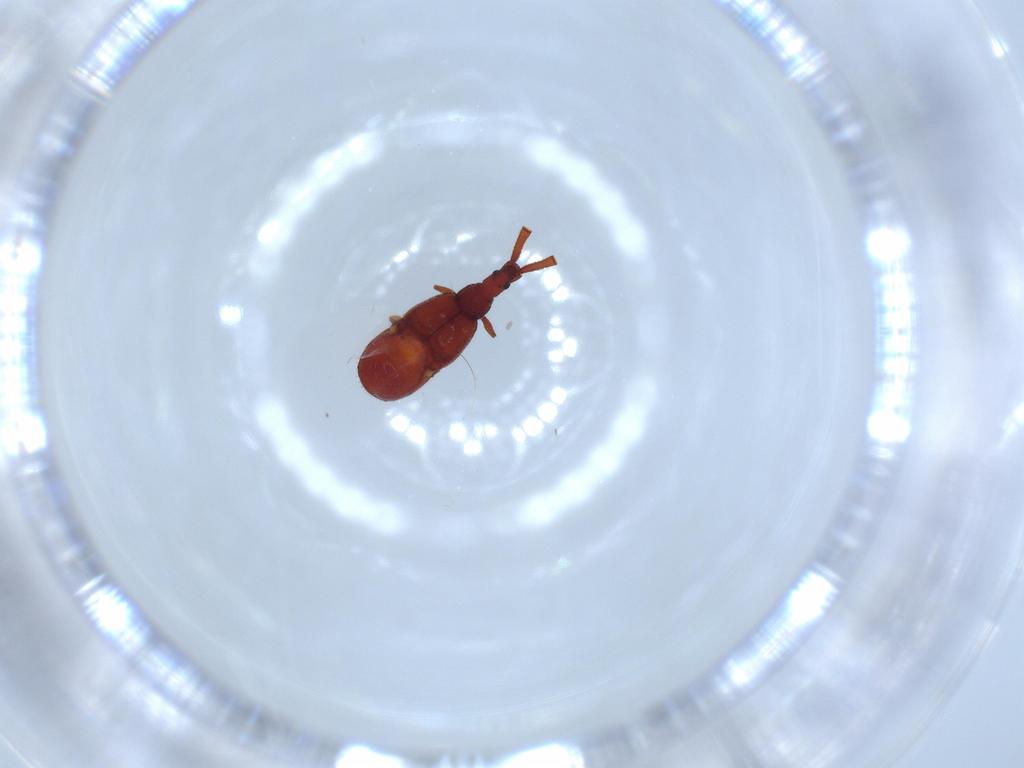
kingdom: Animalia
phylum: Arthropoda
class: Insecta
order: Coleoptera
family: Staphylinidae
